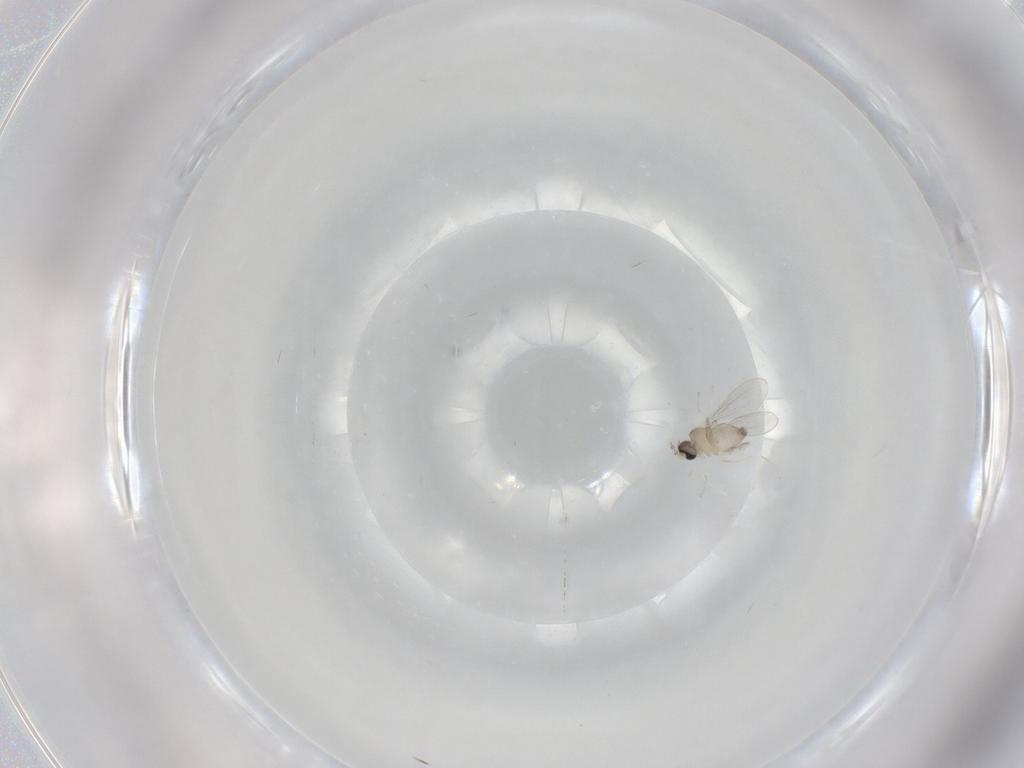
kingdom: Animalia
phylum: Arthropoda
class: Insecta
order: Diptera
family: Cecidomyiidae
